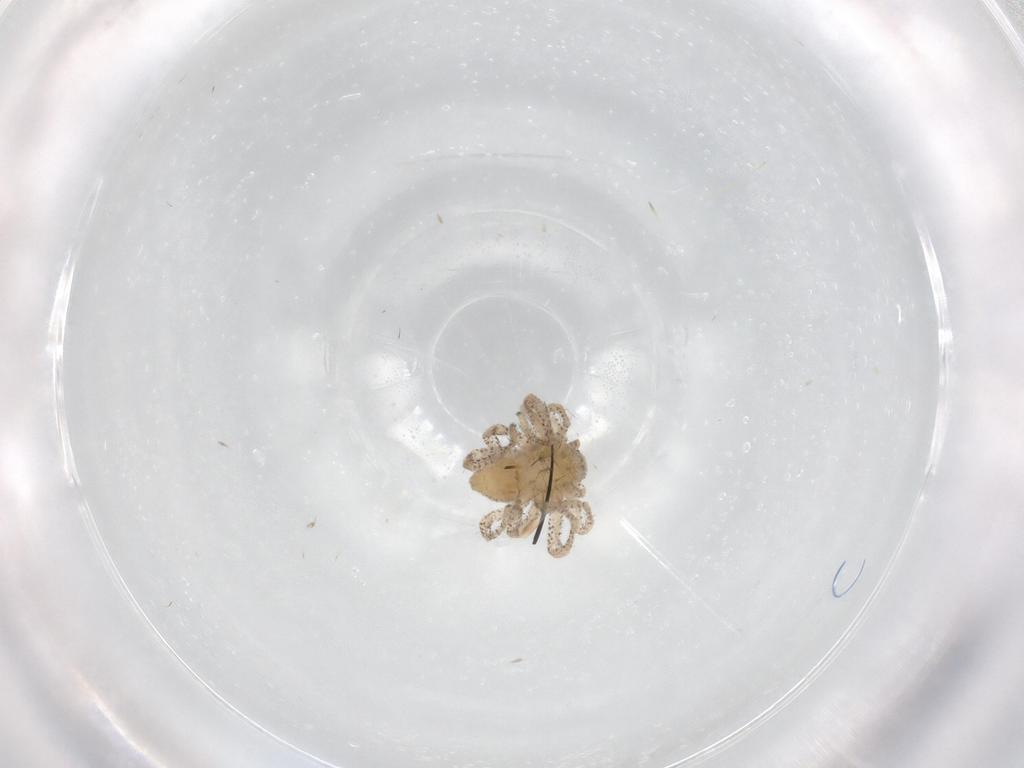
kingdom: Animalia
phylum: Arthropoda
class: Arachnida
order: Araneae
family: Philodromidae
